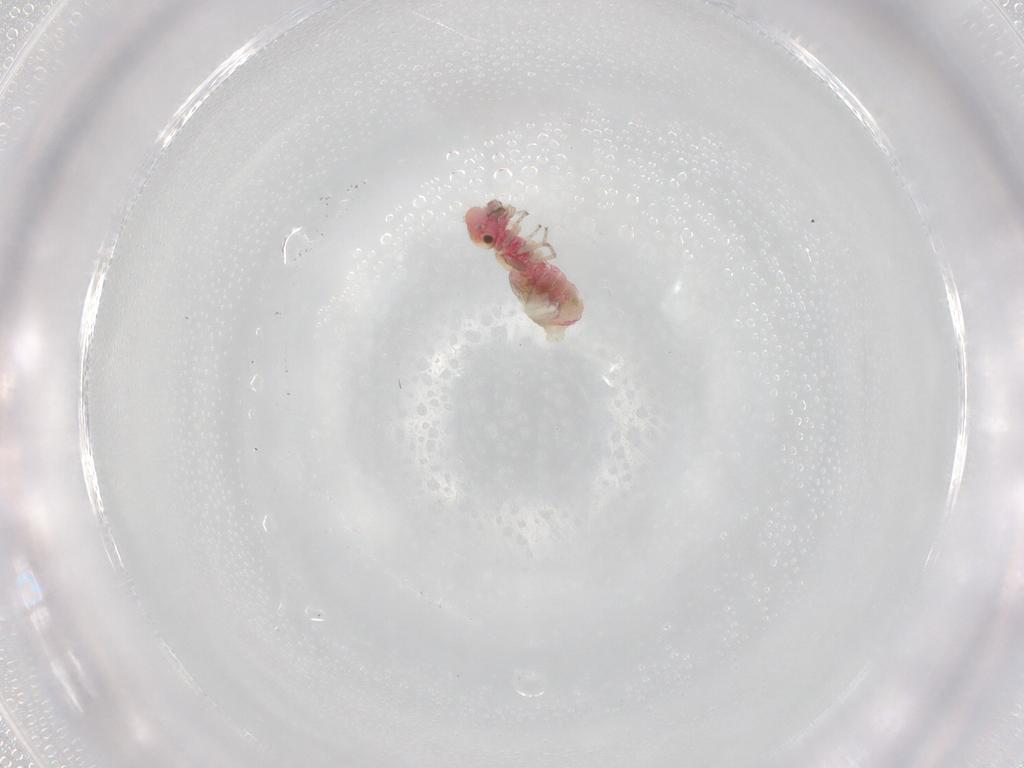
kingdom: Animalia
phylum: Arthropoda
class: Insecta
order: Psocodea
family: Caeciliusidae
